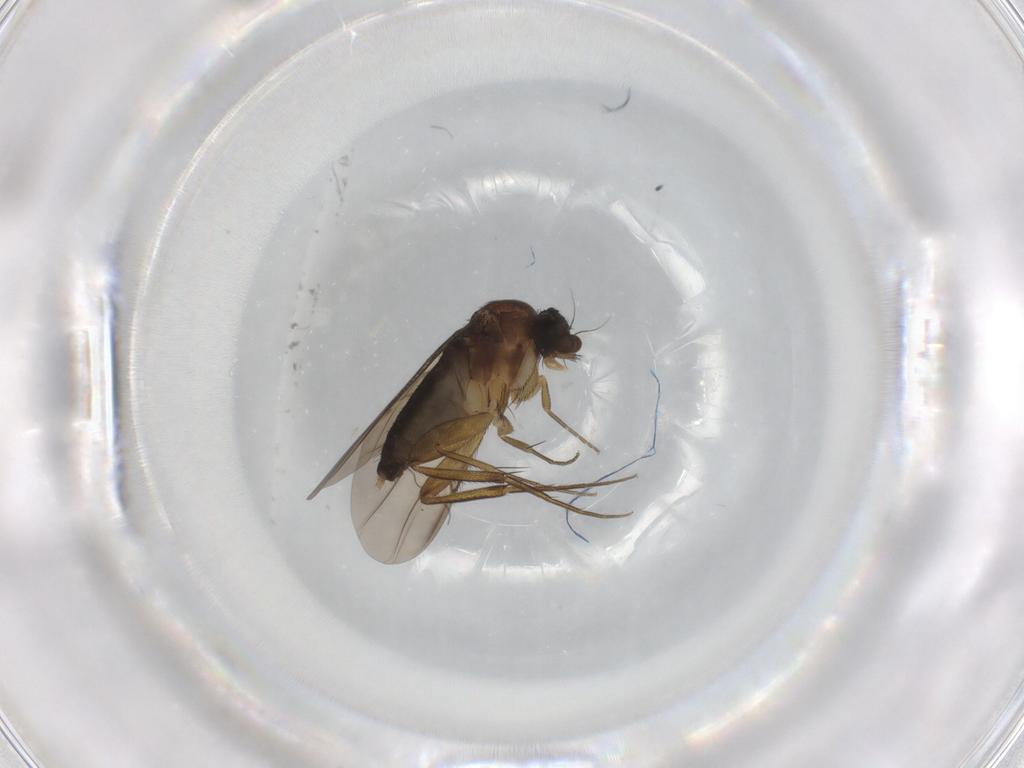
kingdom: Animalia
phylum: Arthropoda
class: Insecta
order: Diptera
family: Phoridae
